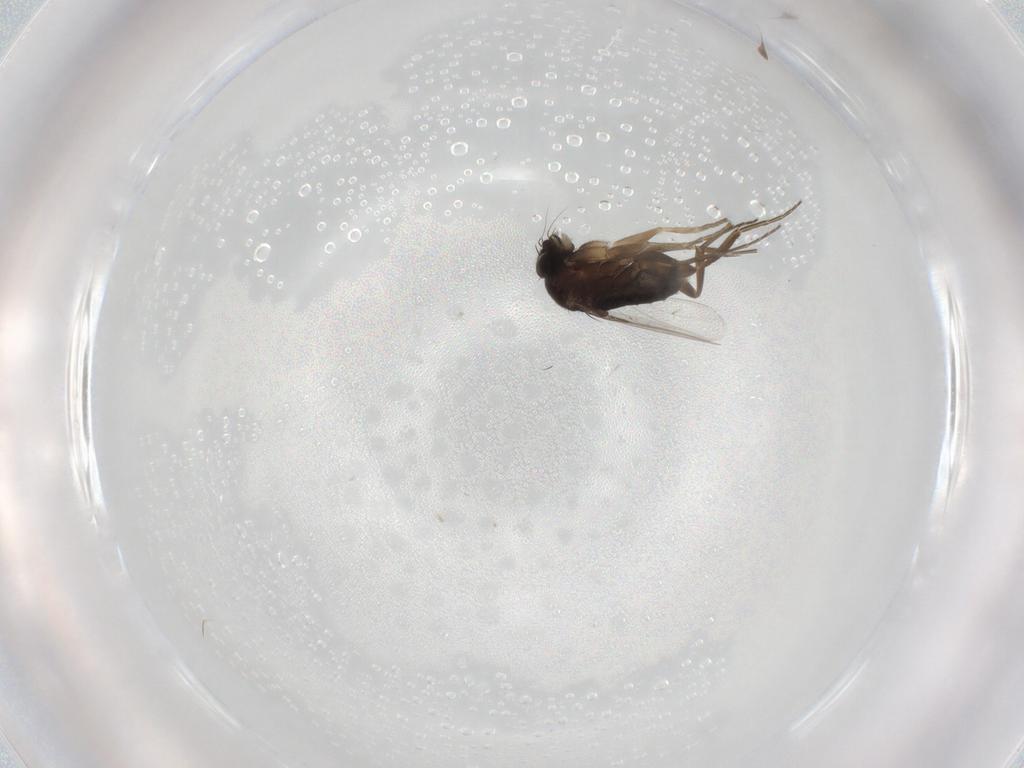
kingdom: Animalia
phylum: Arthropoda
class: Insecta
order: Diptera
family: Phoridae
